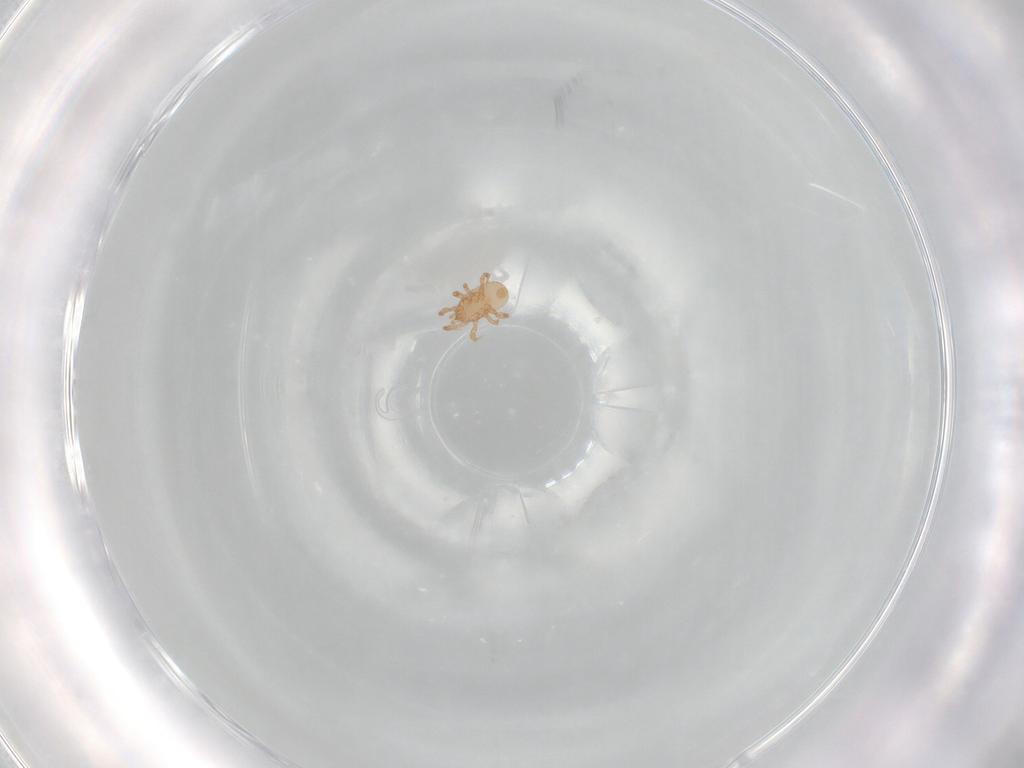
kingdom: Animalia
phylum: Arthropoda
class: Arachnida
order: Mesostigmata
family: Ascidae
